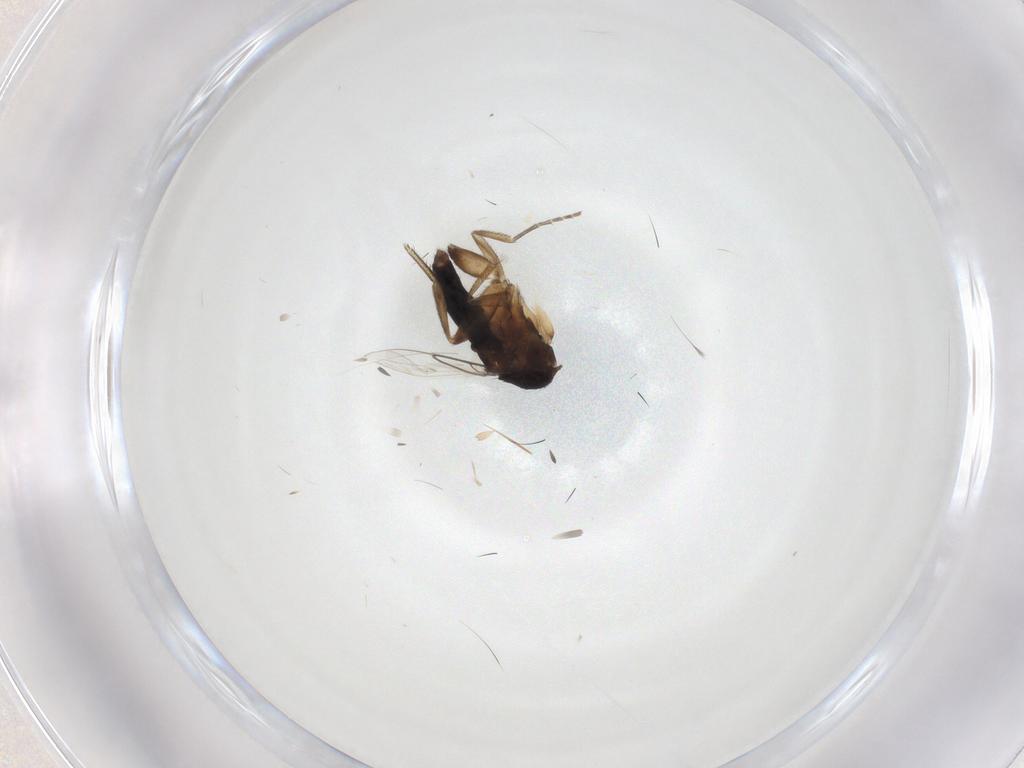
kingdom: Animalia
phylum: Arthropoda
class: Insecta
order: Diptera
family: Phoridae
